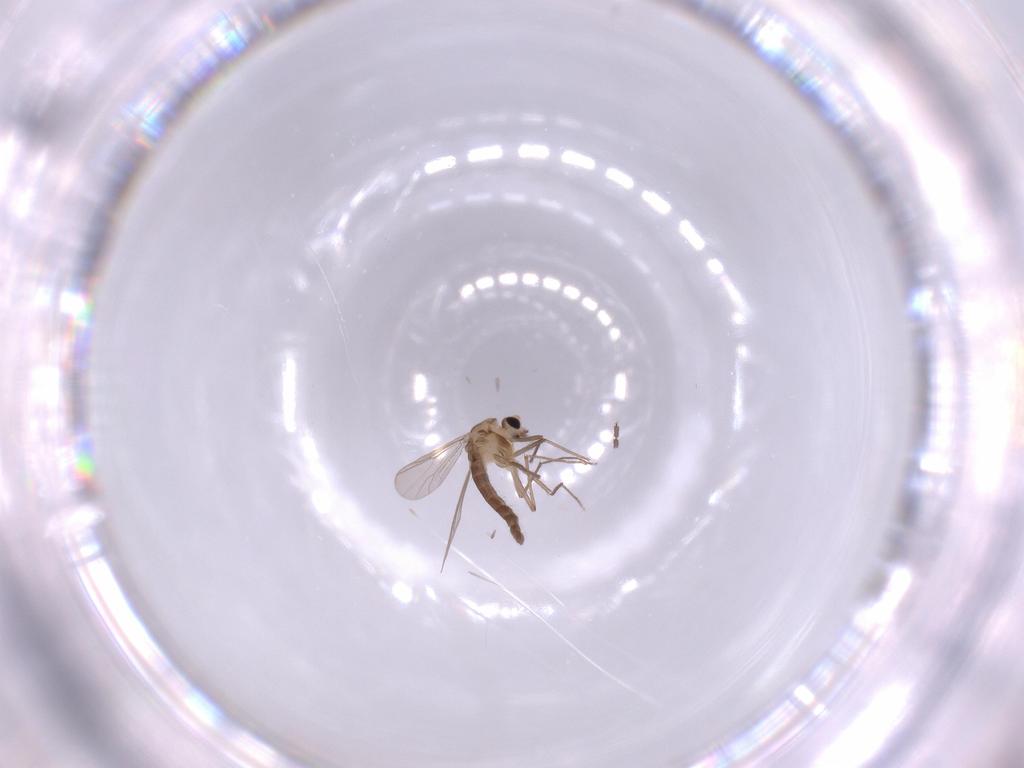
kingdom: Animalia
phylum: Arthropoda
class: Insecta
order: Diptera
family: Sciaridae
